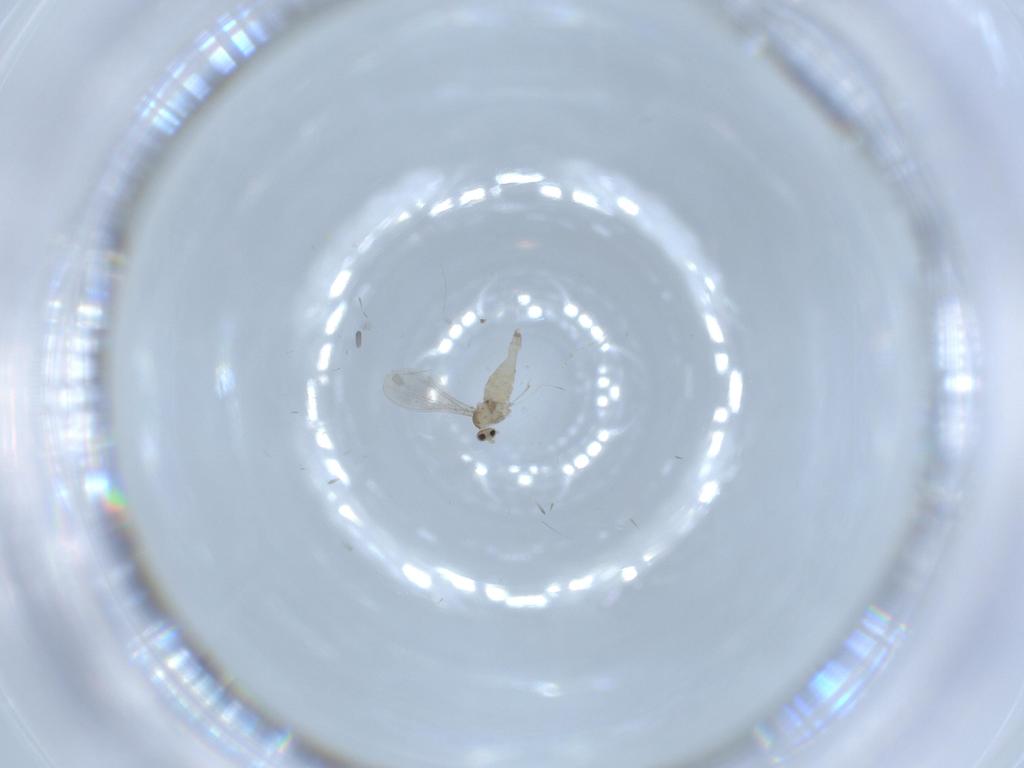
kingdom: Animalia
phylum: Arthropoda
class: Insecta
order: Diptera
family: Cecidomyiidae
